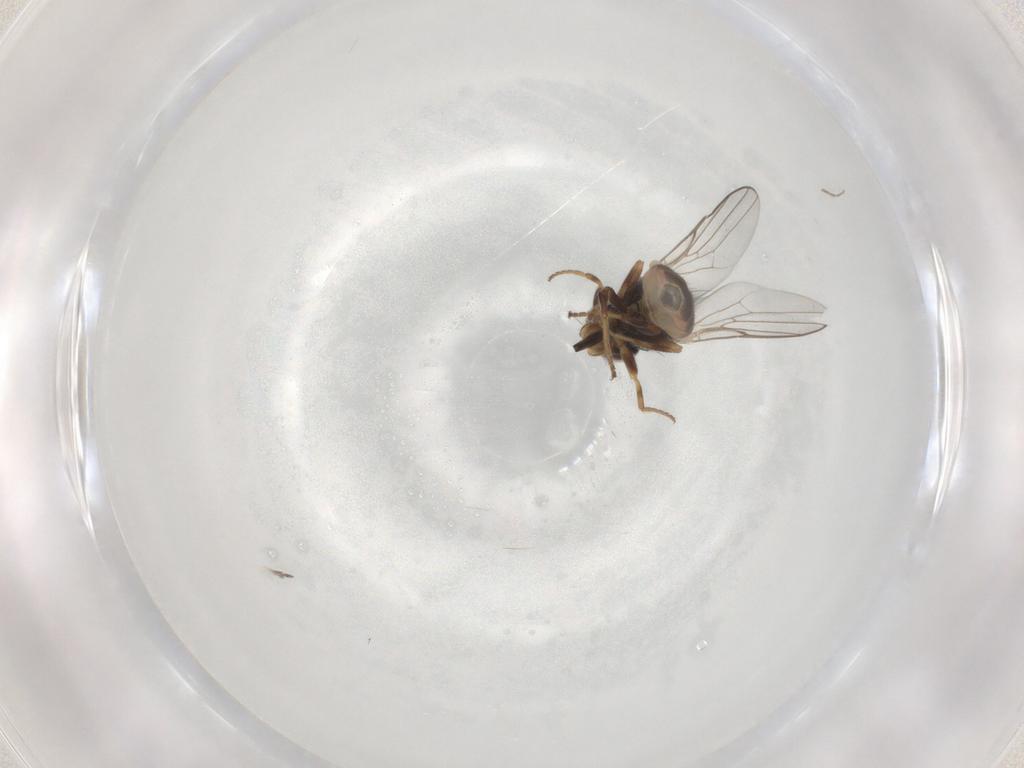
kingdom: Animalia
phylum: Arthropoda
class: Insecta
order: Diptera
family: Chloropidae
